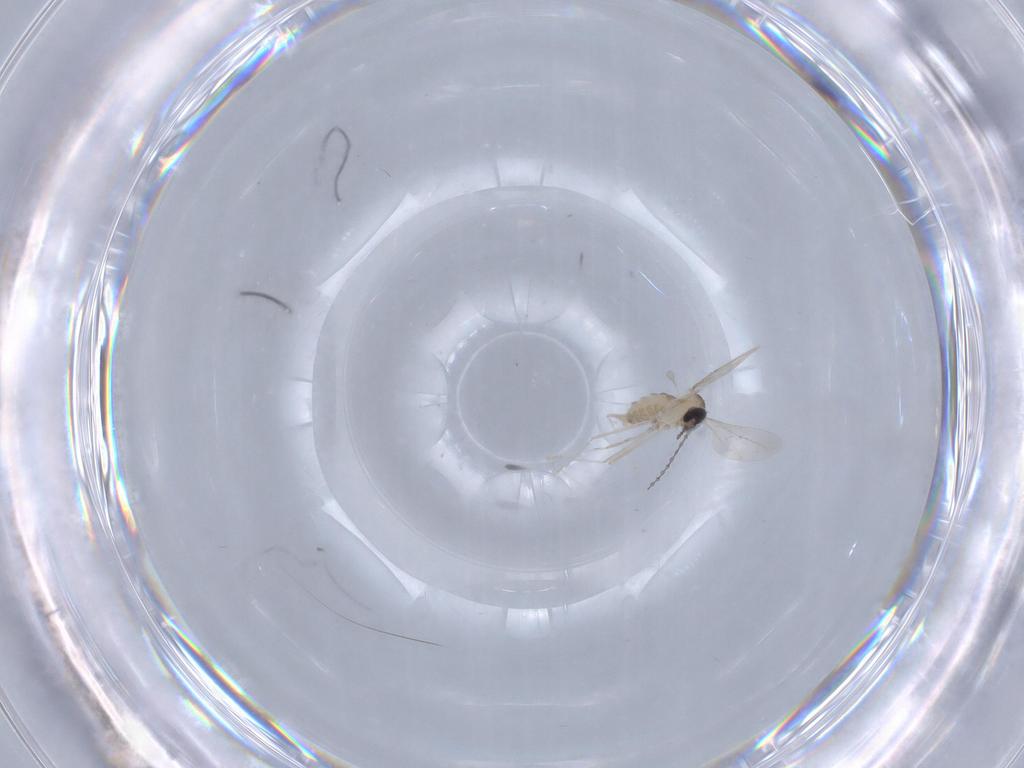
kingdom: Animalia
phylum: Arthropoda
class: Insecta
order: Diptera
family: Cecidomyiidae
